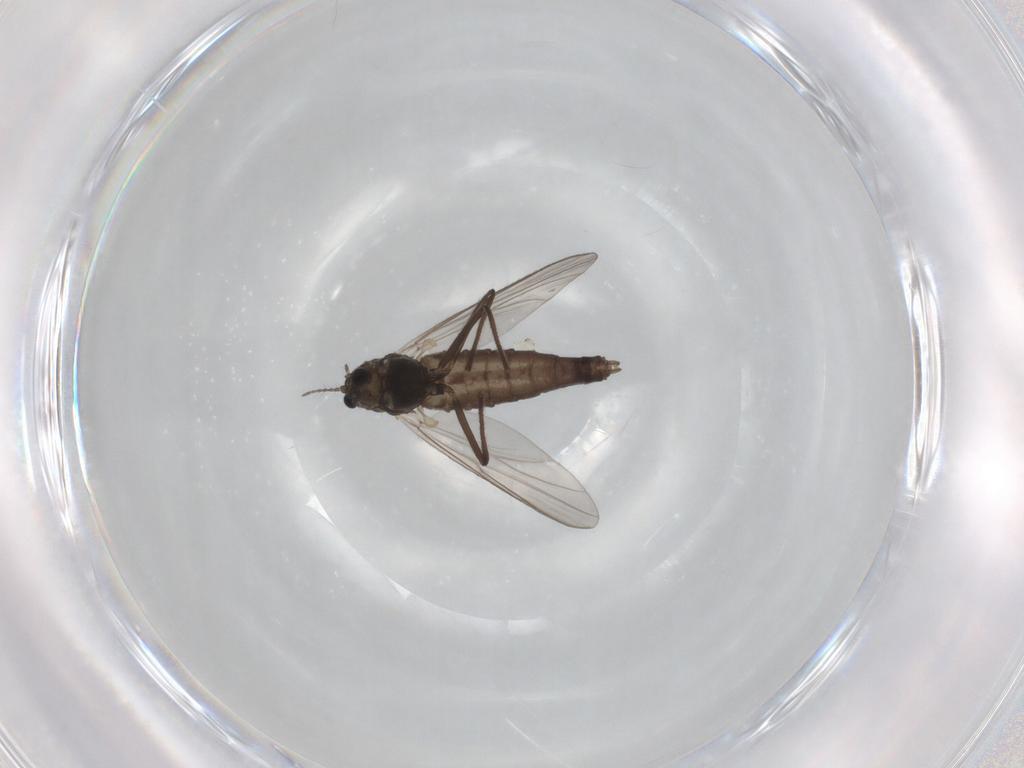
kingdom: Animalia
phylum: Arthropoda
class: Insecta
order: Diptera
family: Chironomidae
